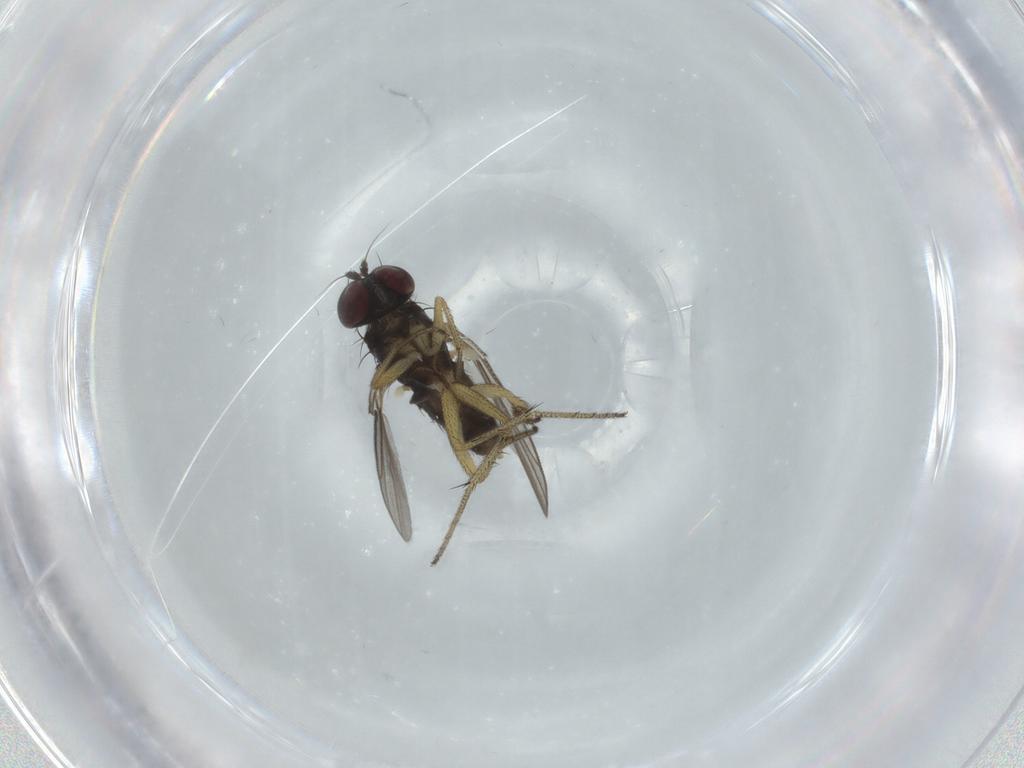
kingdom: Animalia
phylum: Arthropoda
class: Insecta
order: Diptera
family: Dolichopodidae
